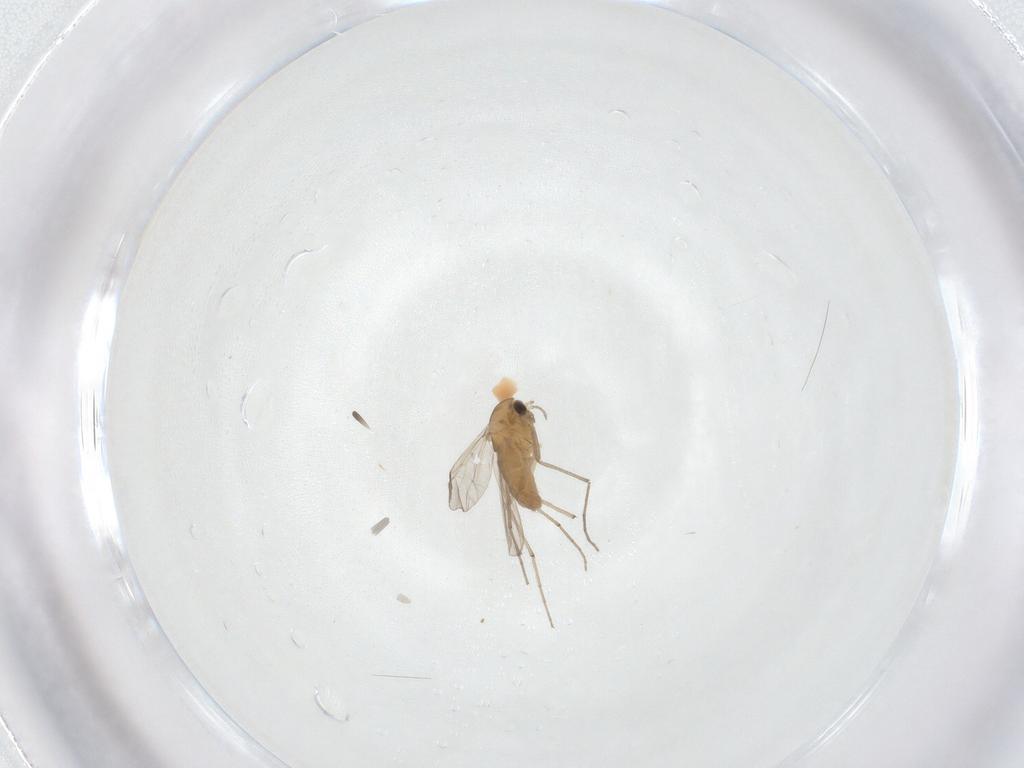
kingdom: Animalia
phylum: Arthropoda
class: Insecta
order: Diptera
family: Chironomidae
